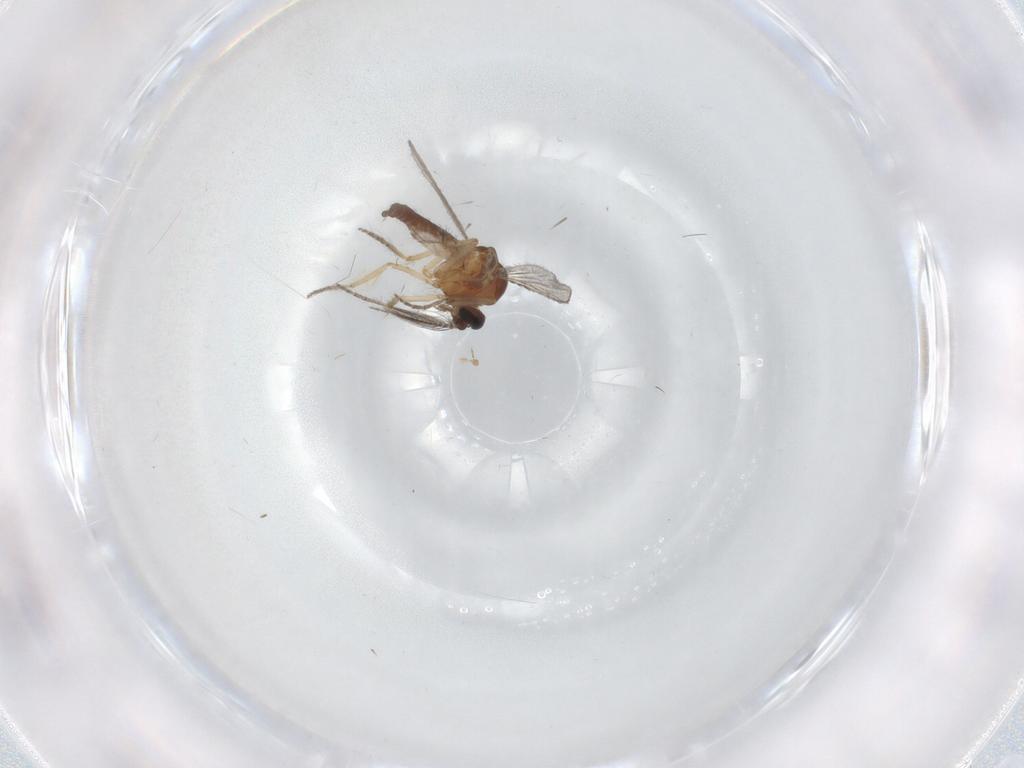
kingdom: Animalia
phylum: Arthropoda
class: Insecta
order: Diptera
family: Ceratopogonidae
